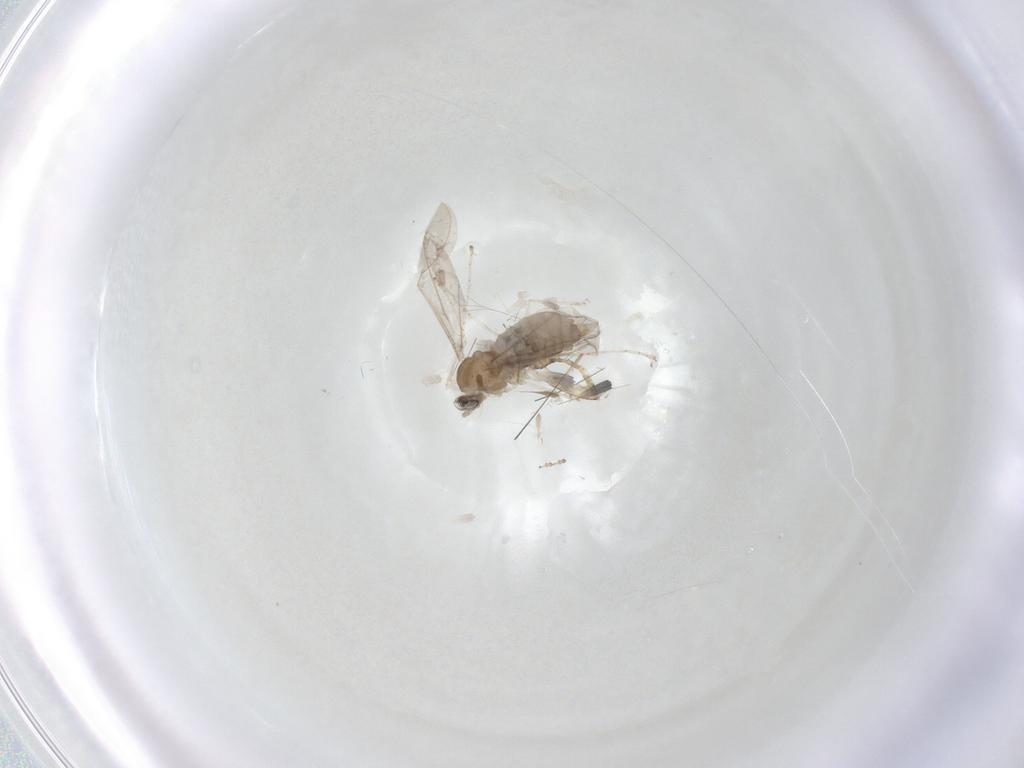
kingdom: Animalia
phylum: Arthropoda
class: Insecta
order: Diptera
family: Cecidomyiidae
